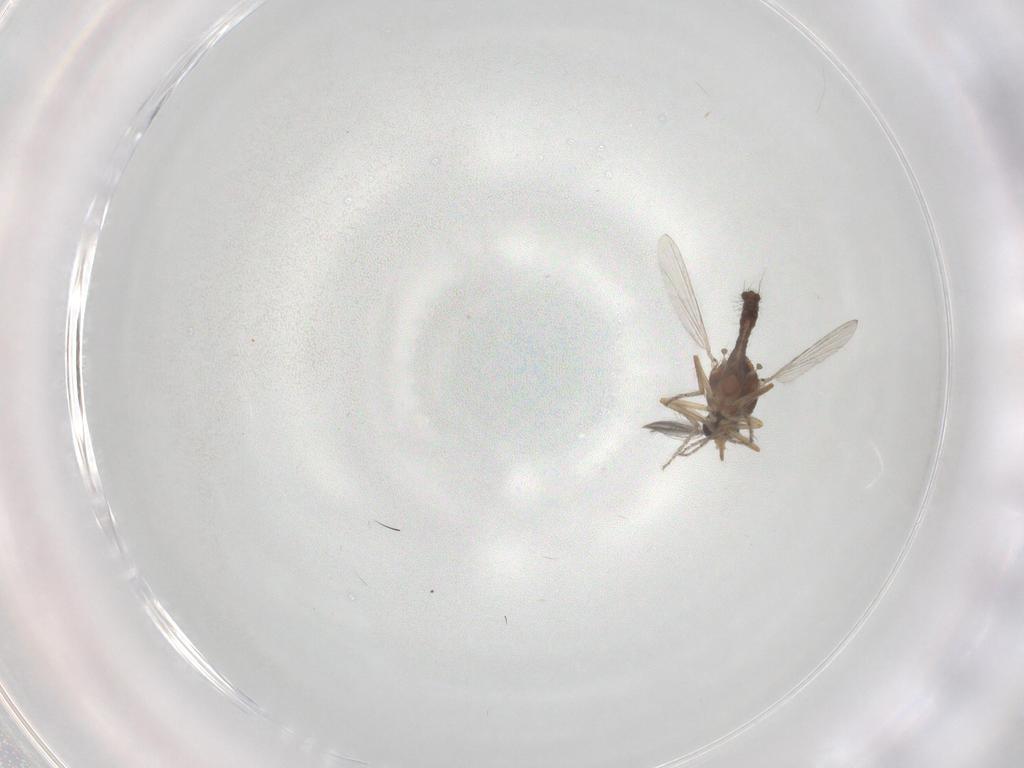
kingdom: Animalia
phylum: Arthropoda
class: Insecta
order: Diptera
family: Ceratopogonidae
